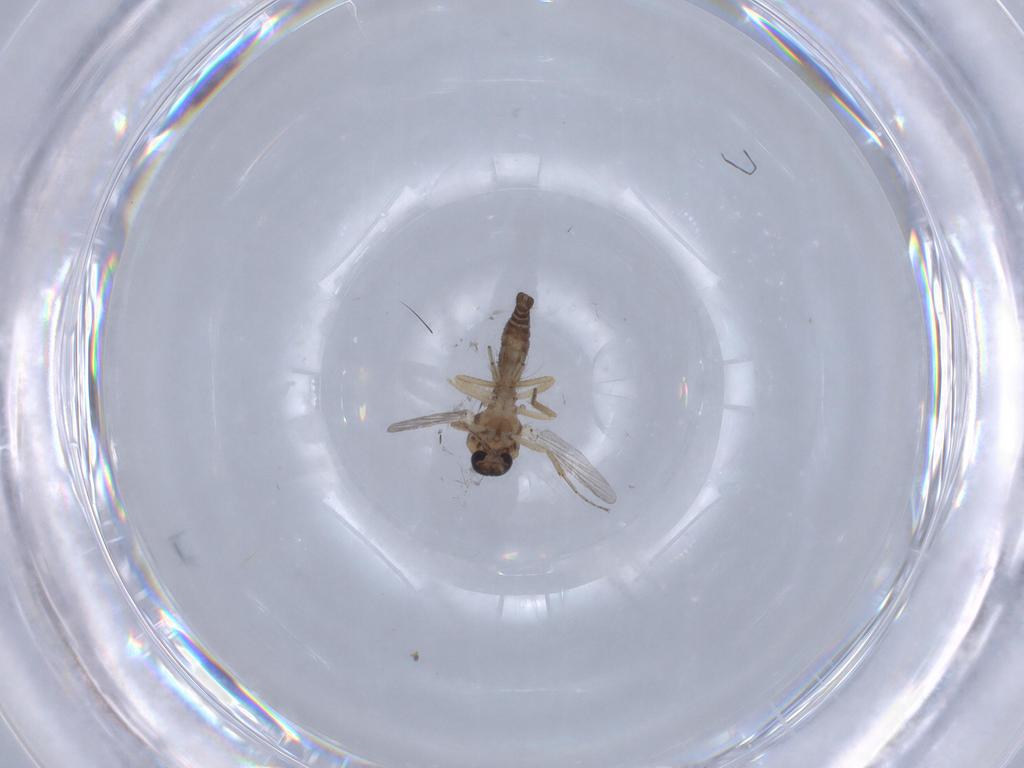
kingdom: Animalia
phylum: Arthropoda
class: Insecta
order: Diptera
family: Ceratopogonidae
